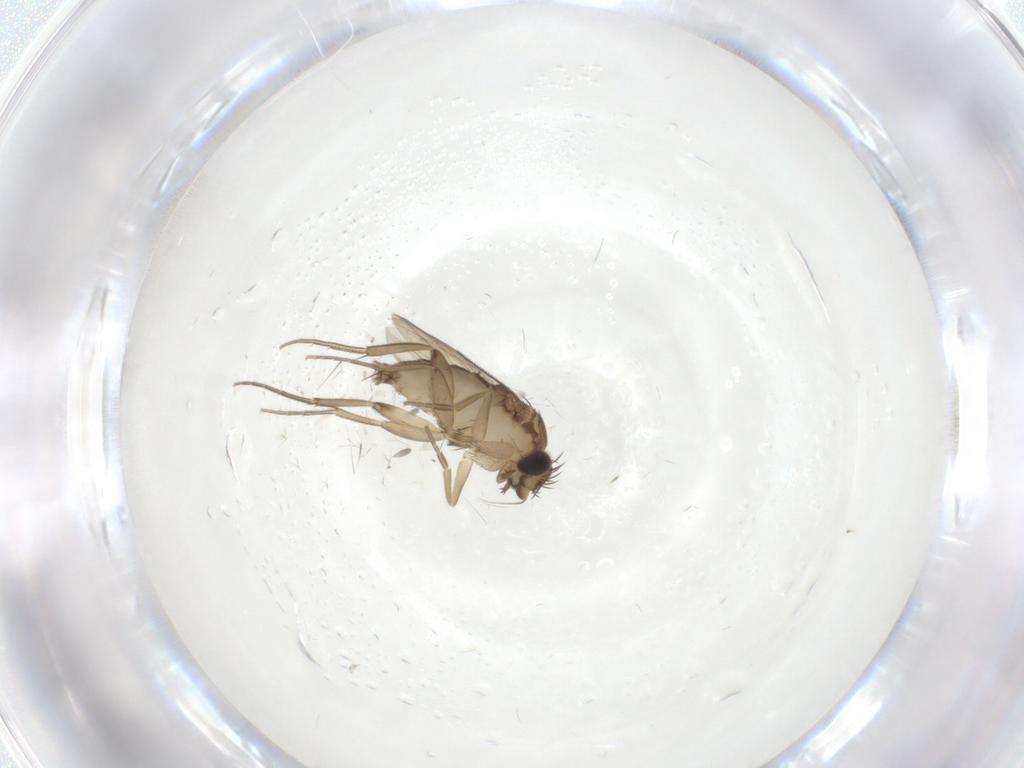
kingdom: Animalia
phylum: Arthropoda
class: Insecta
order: Diptera
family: Phoridae
